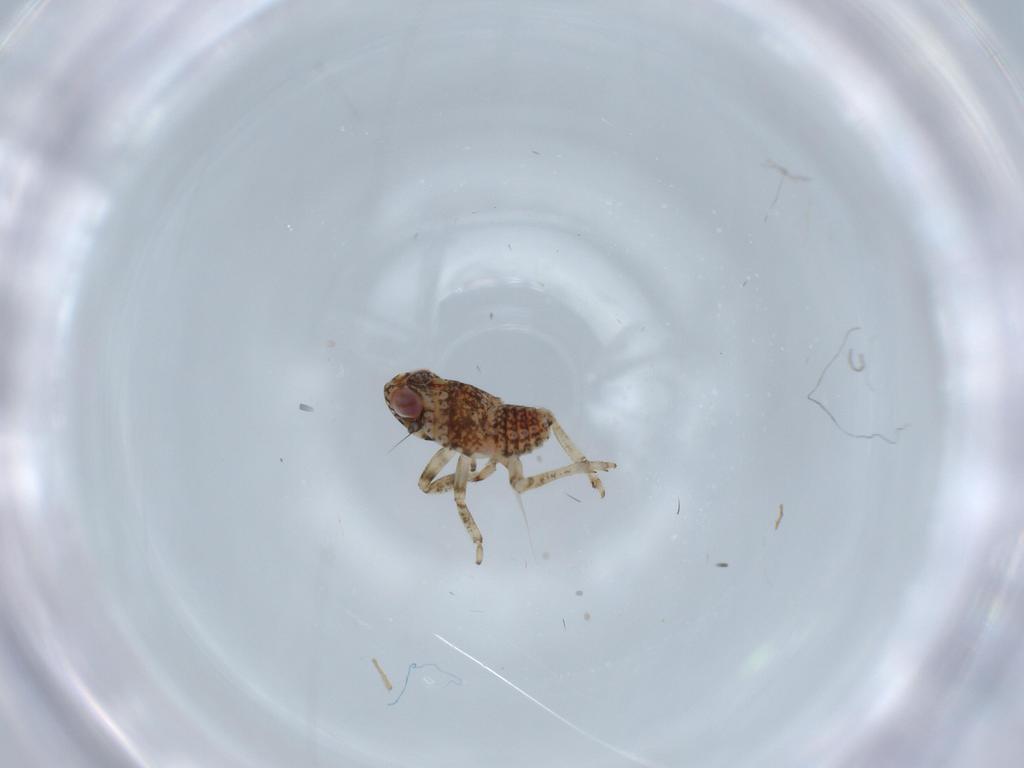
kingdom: Animalia
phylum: Arthropoda
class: Insecta
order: Hemiptera
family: Issidae
